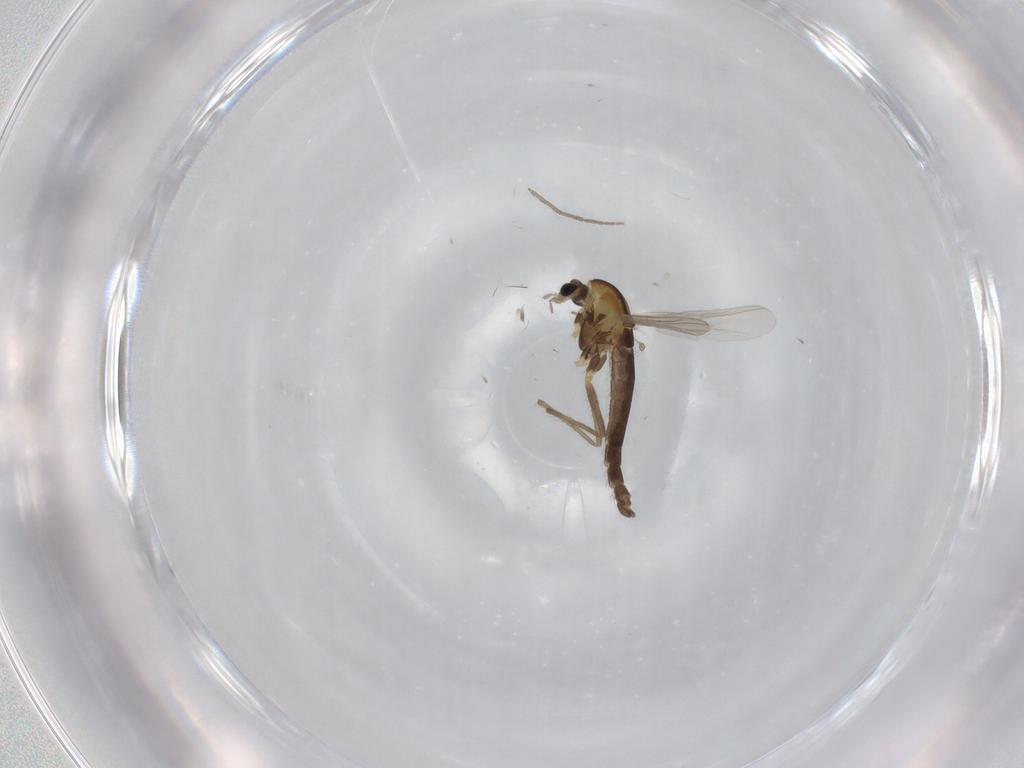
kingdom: Animalia
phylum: Arthropoda
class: Insecta
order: Diptera
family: Chironomidae
